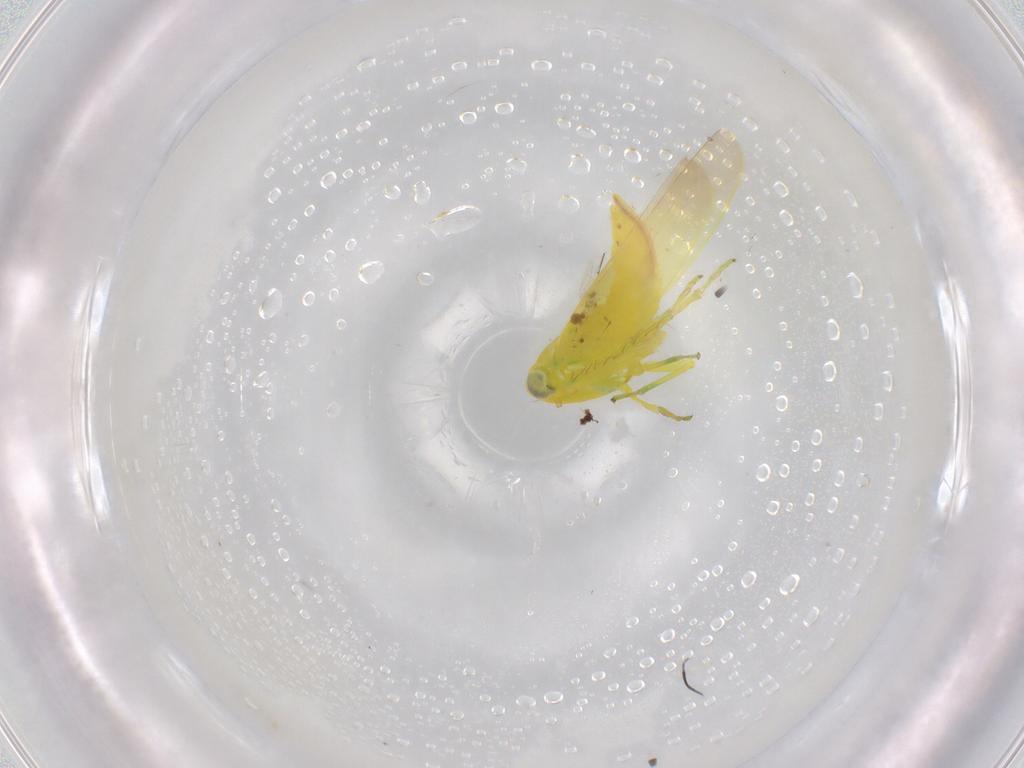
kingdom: Animalia
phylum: Arthropoda
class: Insecta
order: Hemiptera
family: Cicadellidae
